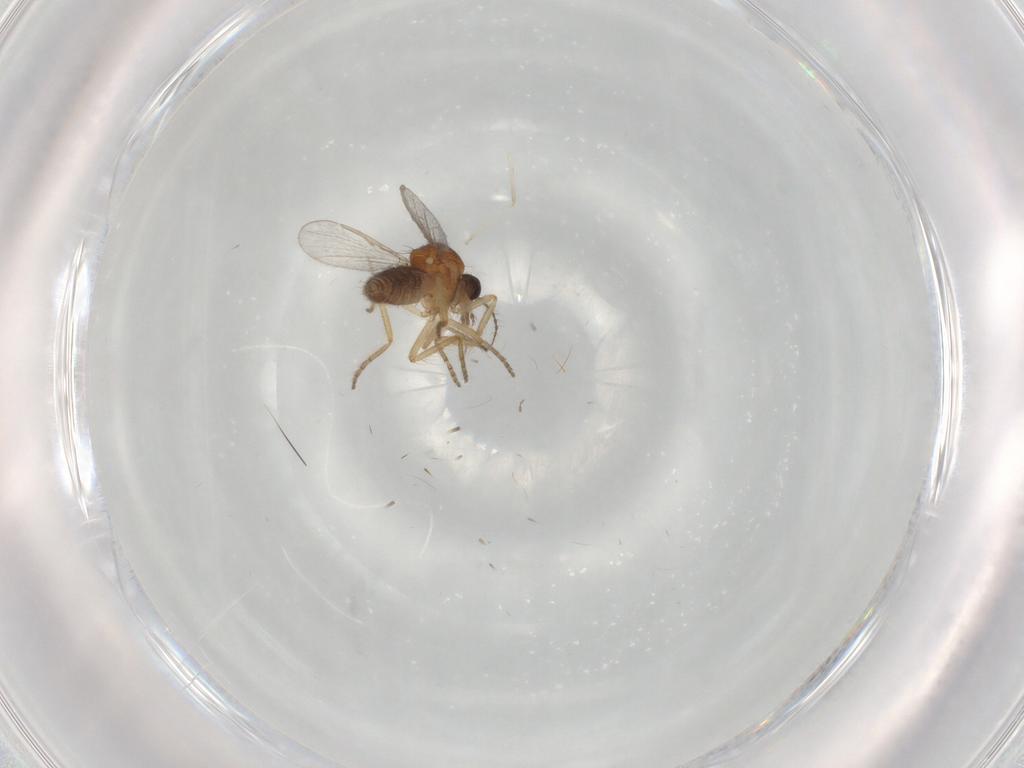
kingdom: Animalia
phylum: Arthropoda
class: Insecta
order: Diptera
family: Ceratopogonidae
